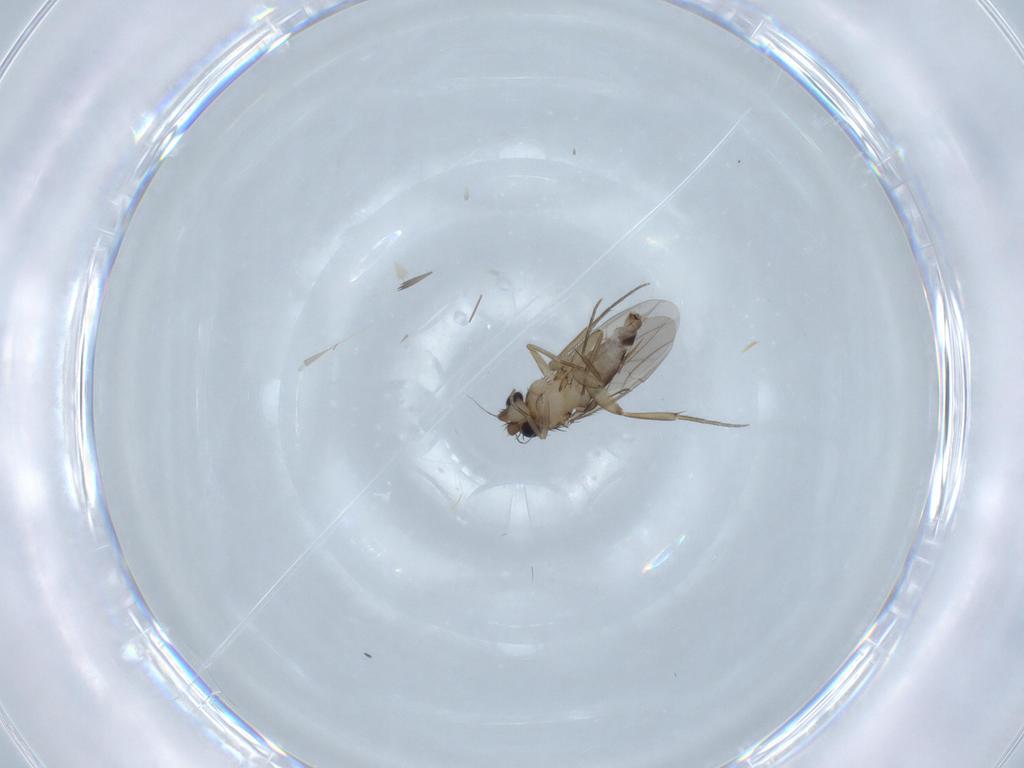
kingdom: Animalia
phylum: Arthropoda
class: Insecta
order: Diptera
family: Phoridae
